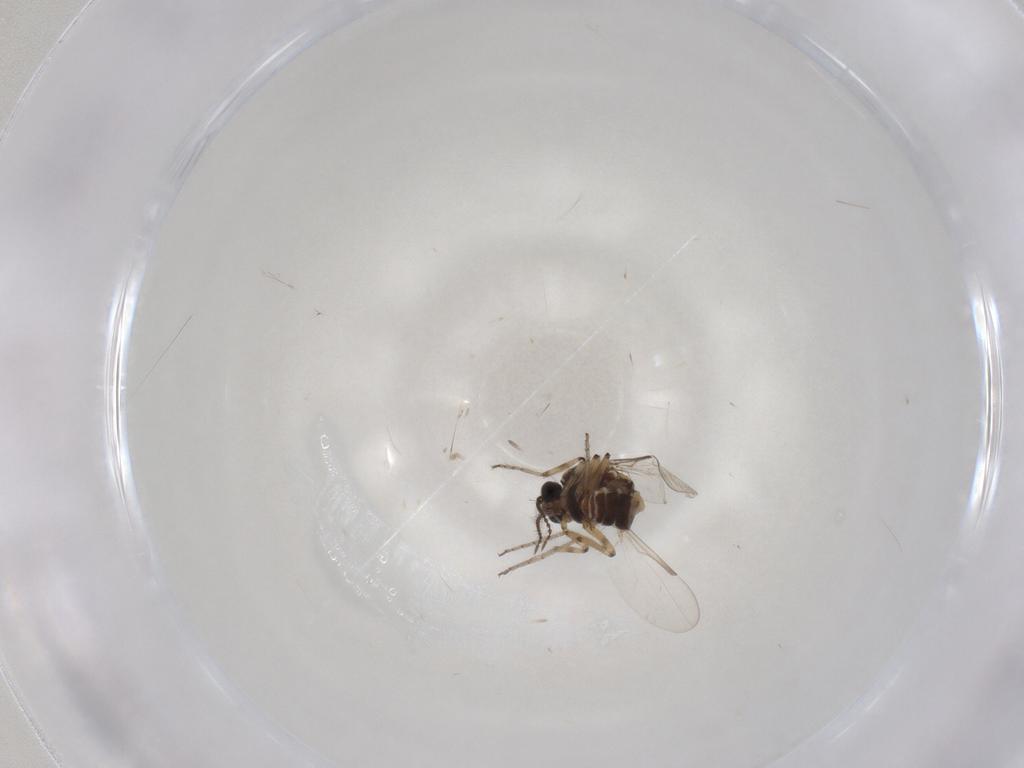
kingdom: Animalia
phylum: Arthropoda
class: Insecta
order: Diptera
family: Ceratopogonidae
